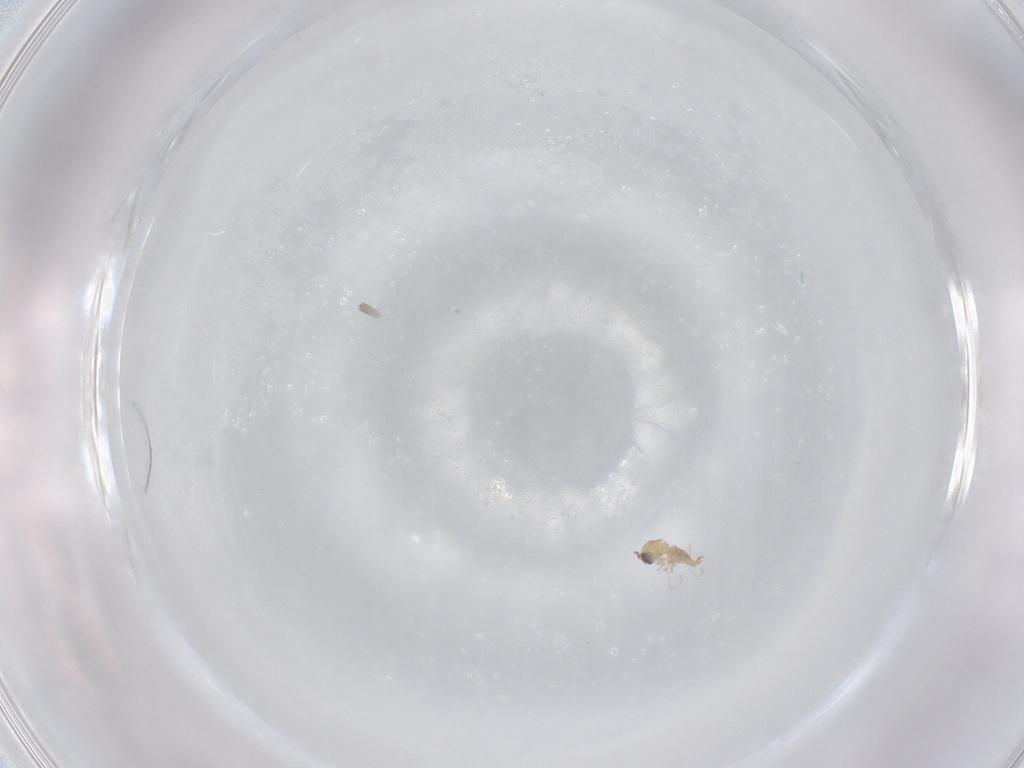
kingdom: Animalia
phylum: Arthropoda
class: Insecta
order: Diptera
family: Cecidomyiidae
